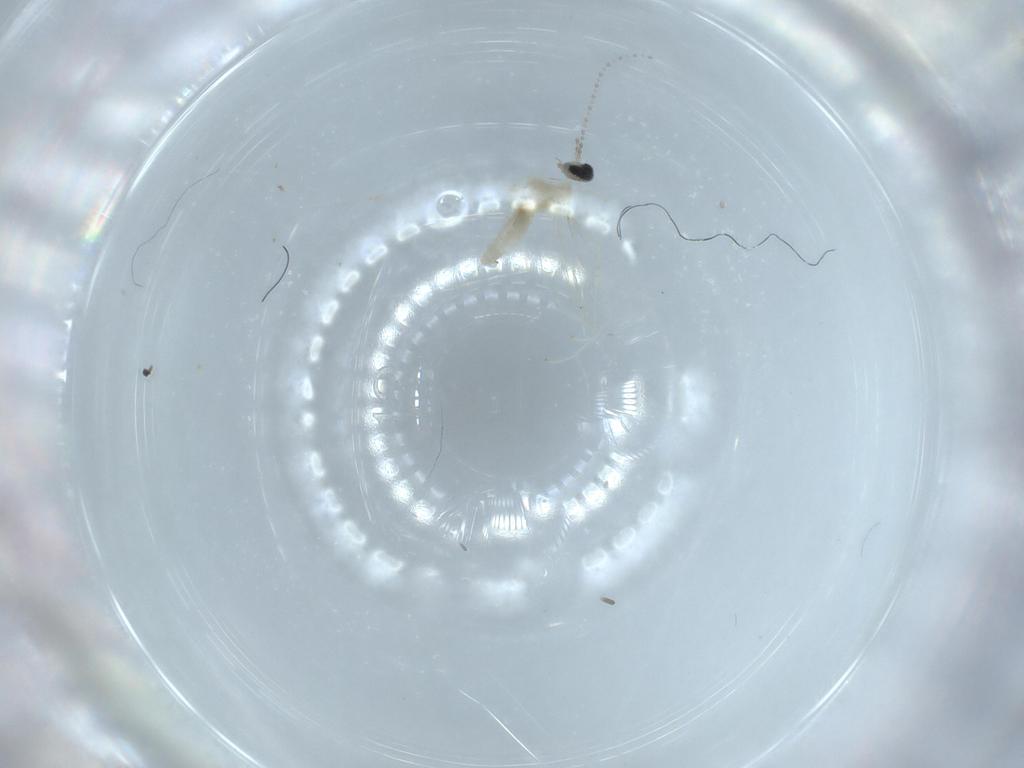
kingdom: Animalia
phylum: Arthropoda
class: Insecta
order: Diptera
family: Cecidomyiidae
